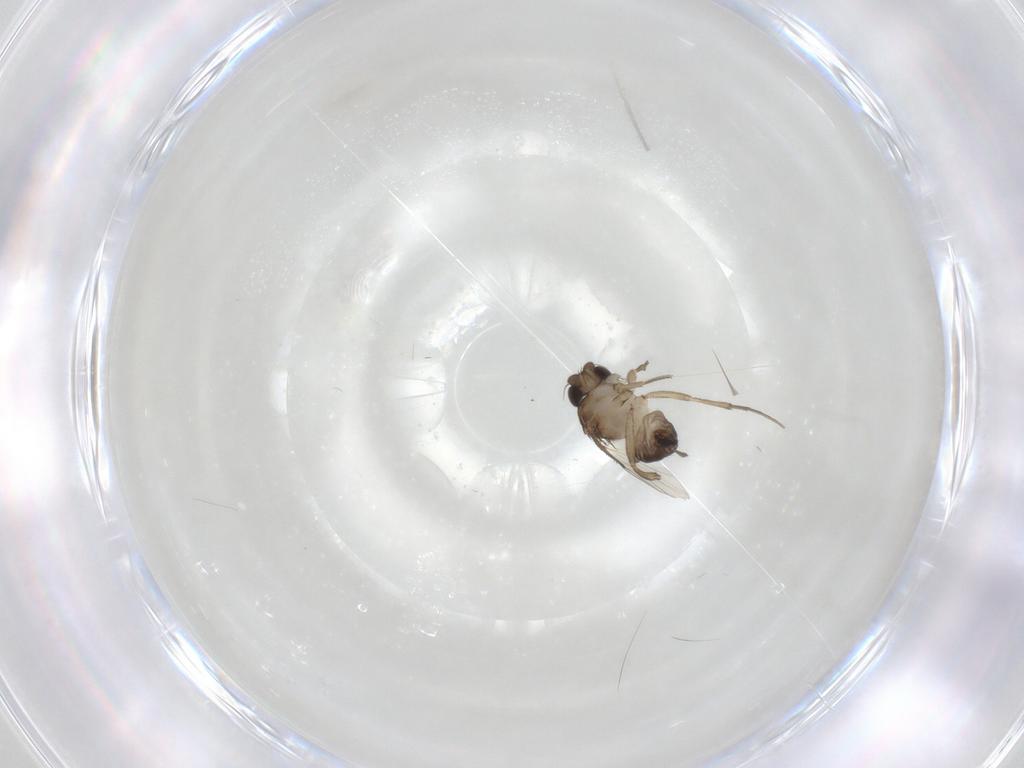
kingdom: Animalia
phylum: Arthropoda
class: Insecta
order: Diptera
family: Phoridae
